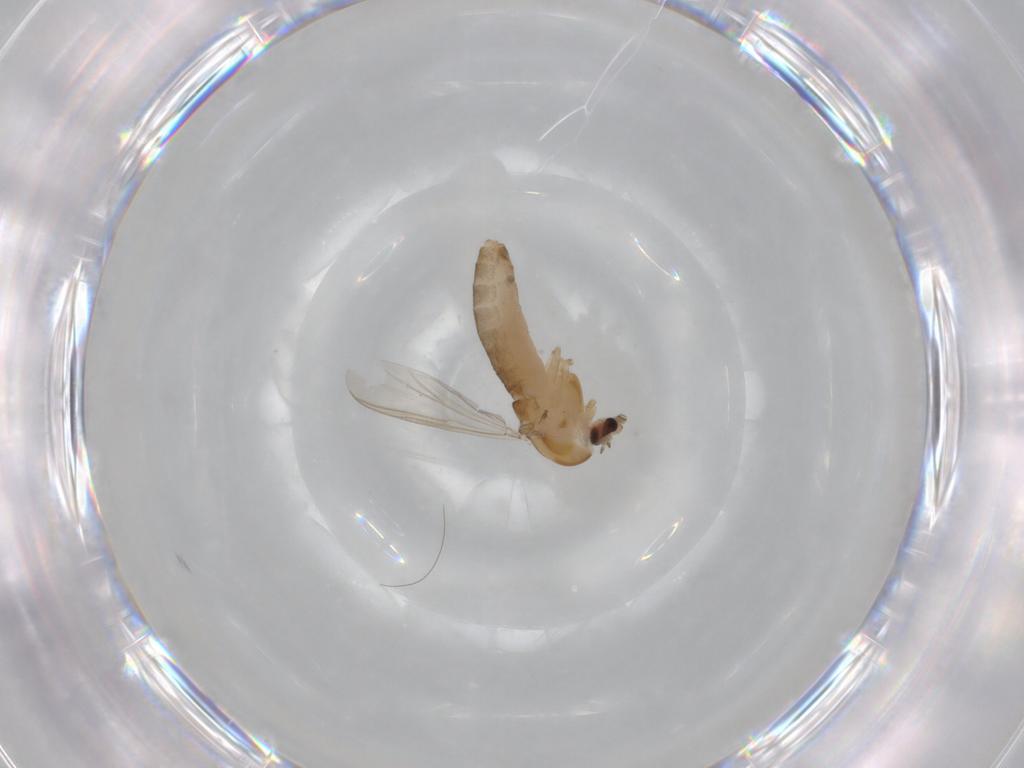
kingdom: Animalia
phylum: Arthropoda
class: Insecta
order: Diptera
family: Chironomidae
